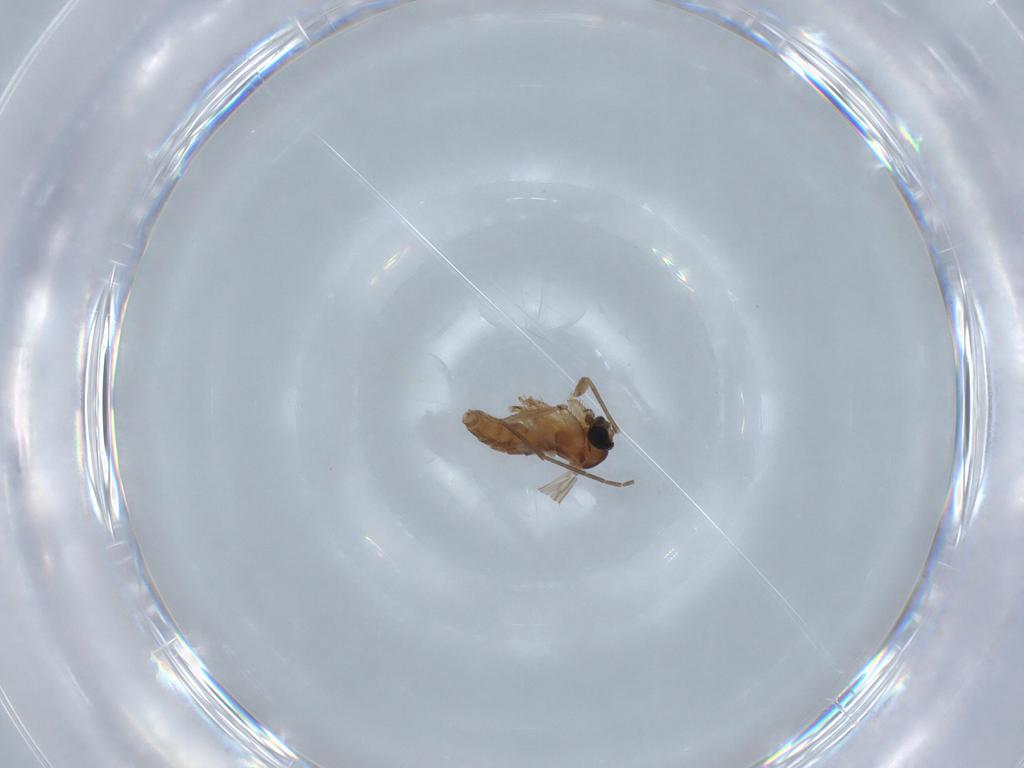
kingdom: Animalia
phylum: Arthropoda
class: Insecta
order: Diptera
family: Sciaridae
